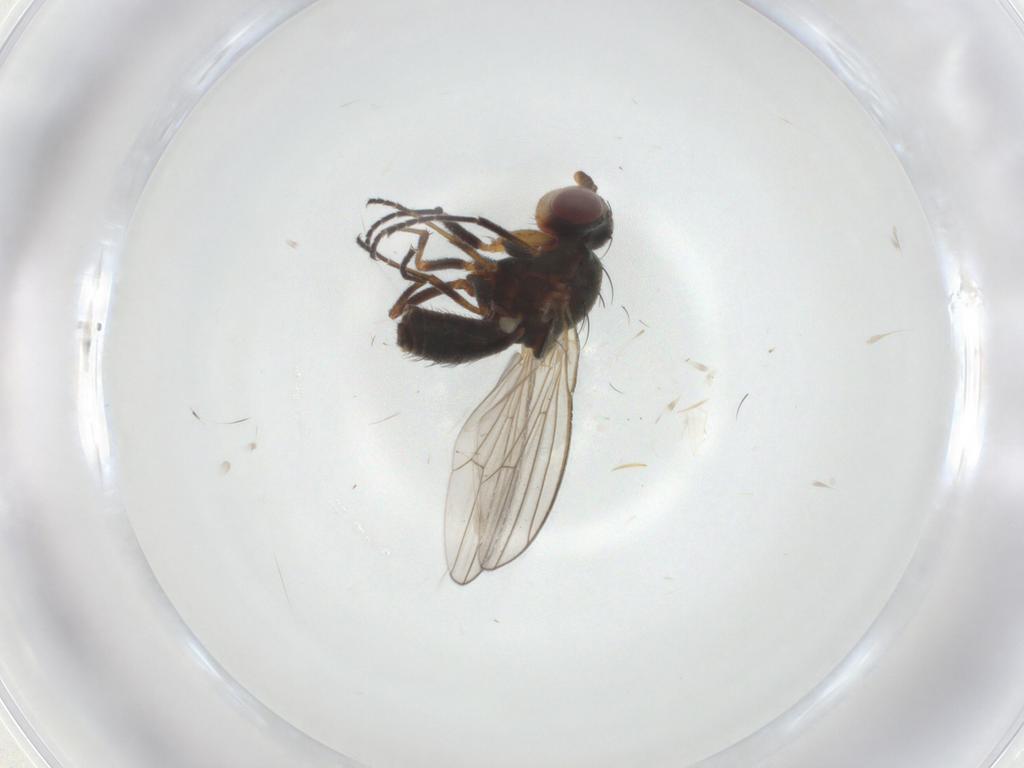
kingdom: Animalia
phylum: Arthropoda
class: Insecta
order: Diptera
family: Canacidae
